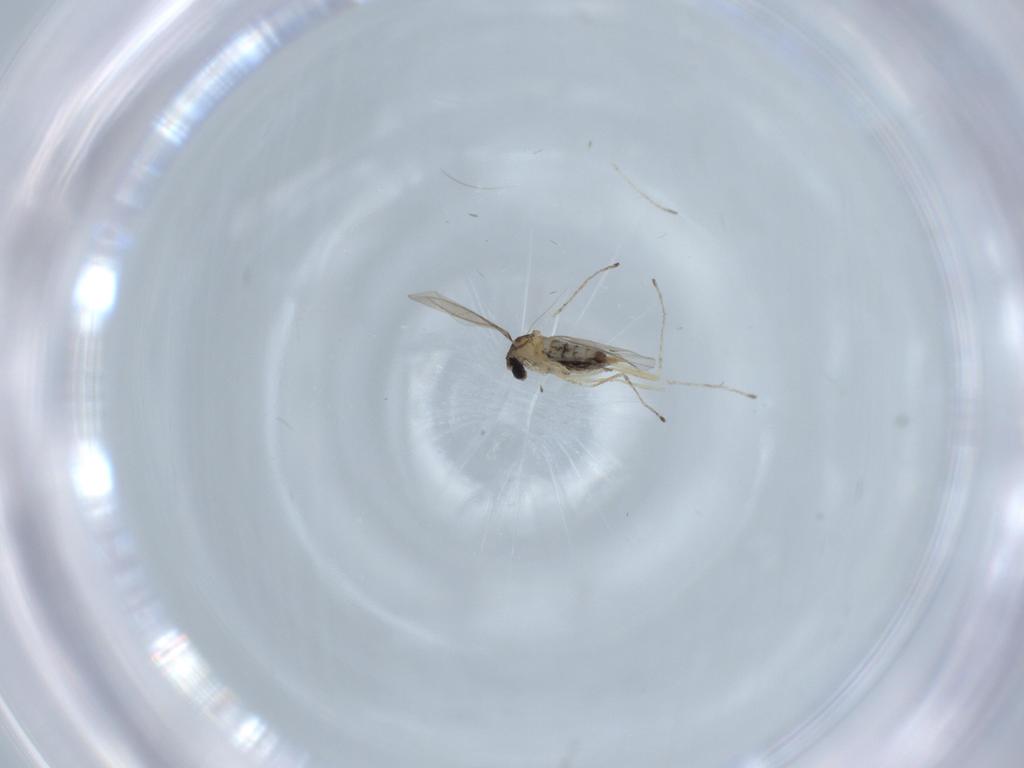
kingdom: Animalia
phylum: Arthropoda
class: Insecta
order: Diptera
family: Cecidomyiidae
